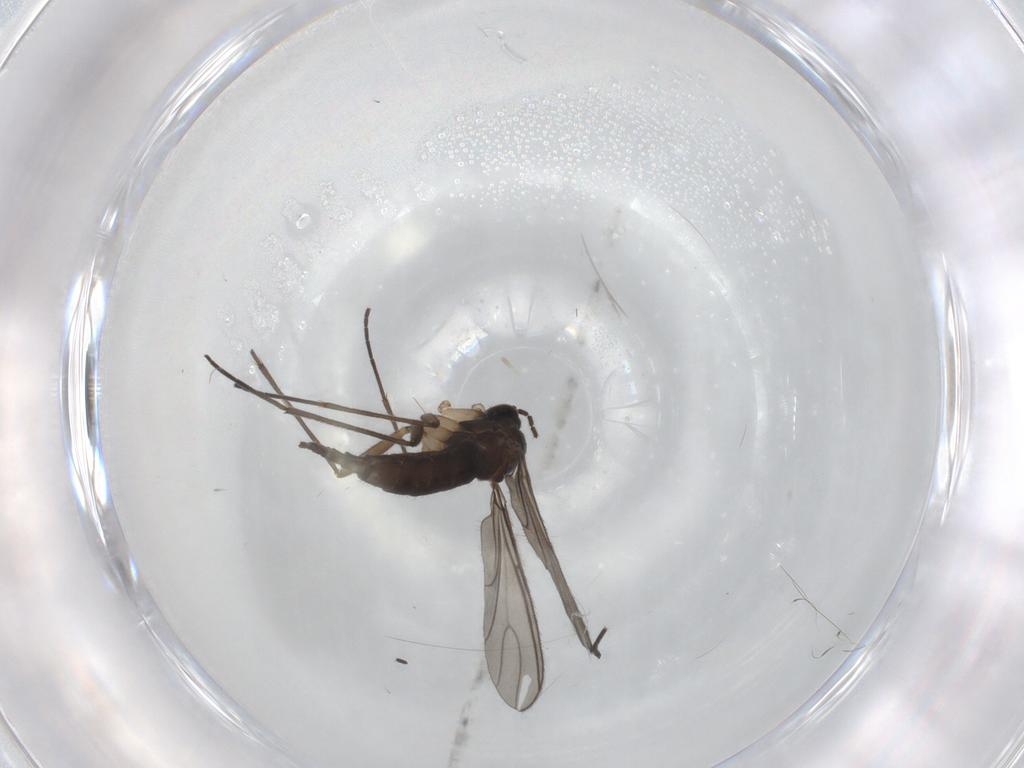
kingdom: Animalia
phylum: Arthropoda
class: Insecta
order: Diptera
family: Sciaridae
